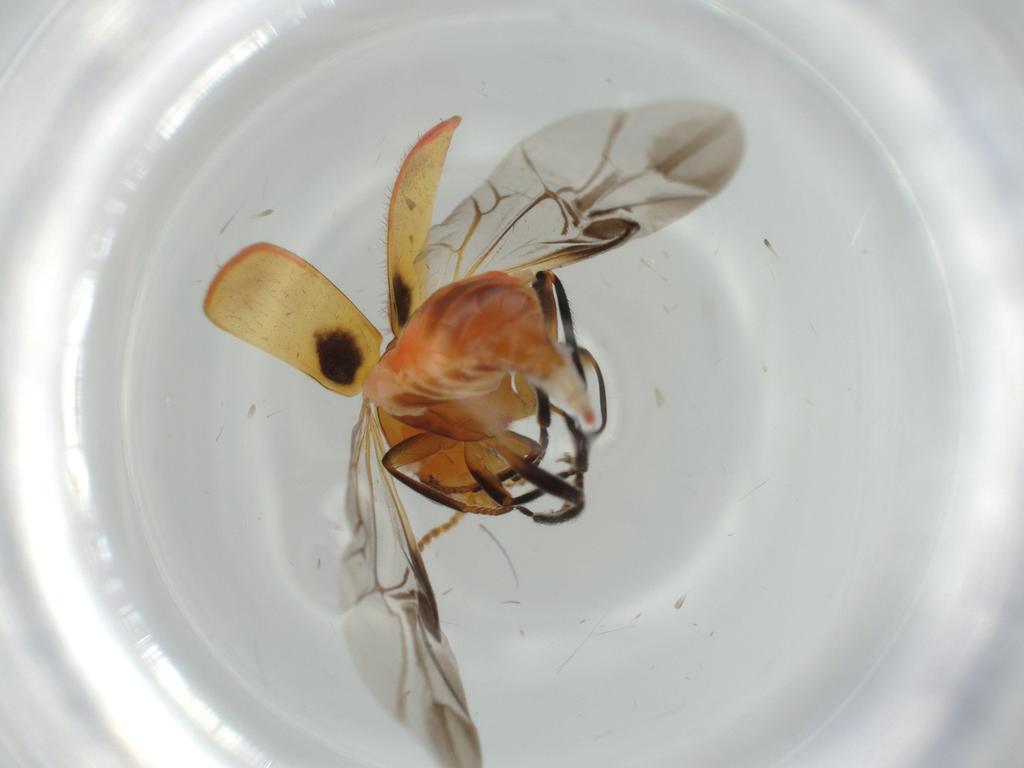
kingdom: Animalia
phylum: Arthropoda
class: Insecta
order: Coleoptera
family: Melyridae
